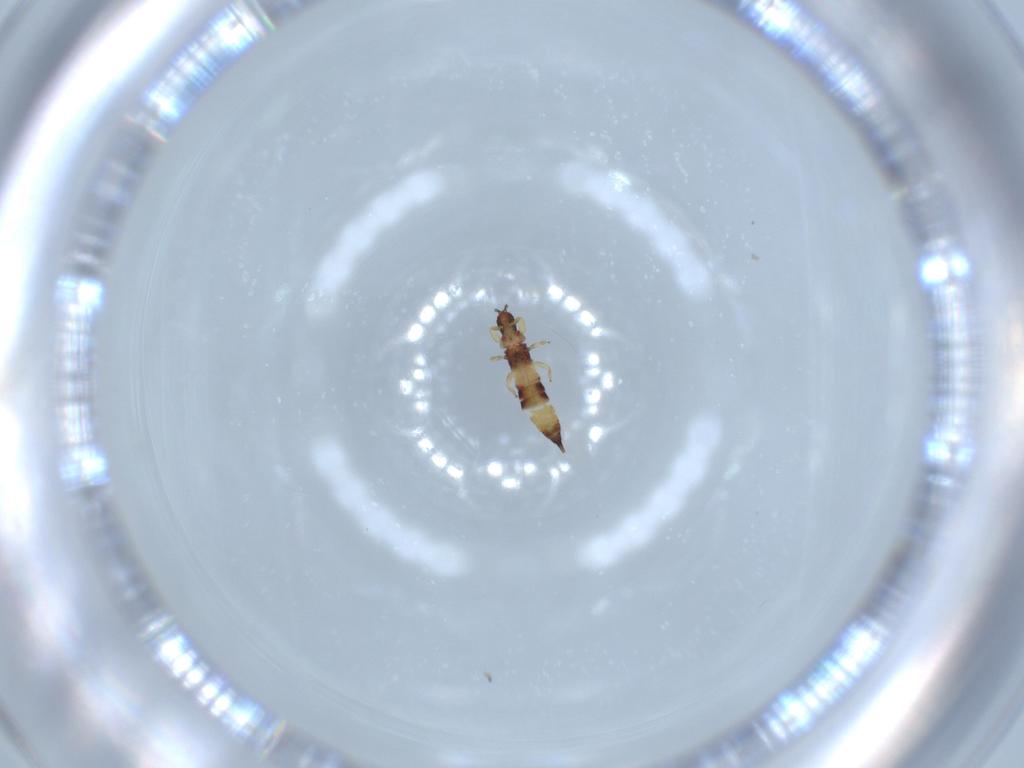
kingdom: Animalia
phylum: Arthropoda
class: Insecta
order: Thysanoptera
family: Phlaeothripidae
